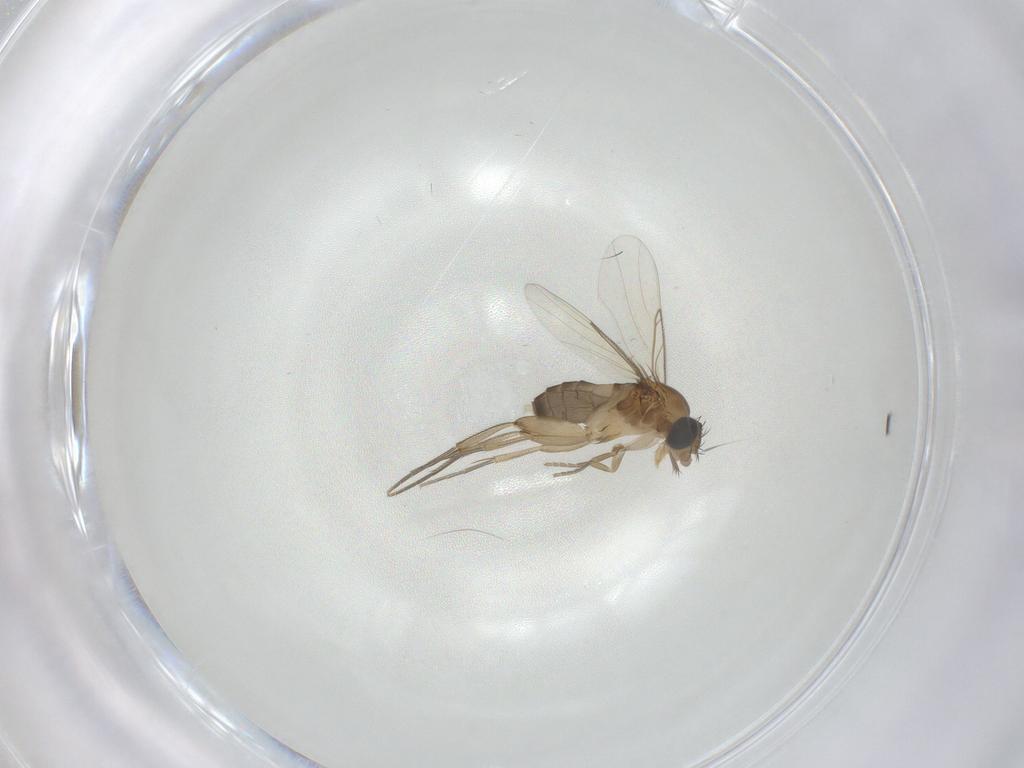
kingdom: Animalia
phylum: Arthropoda
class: Insecta
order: Diptera
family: Phoridae
